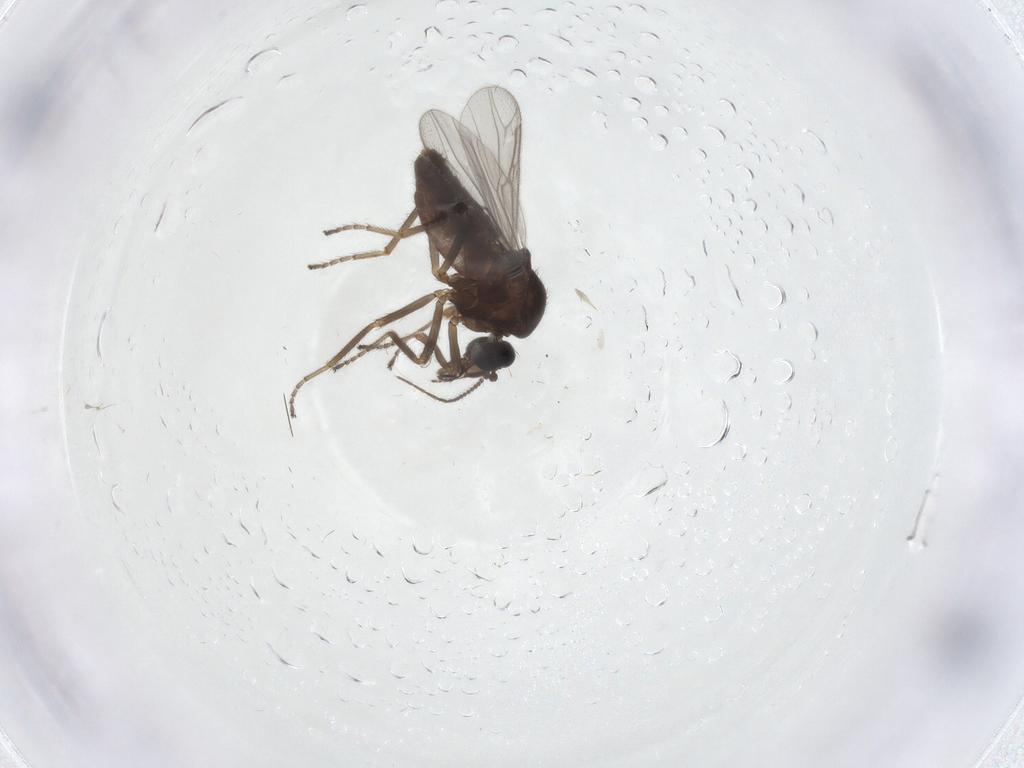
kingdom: Animalia
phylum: Arthropoda
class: Insecta
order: Diptera
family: Ceratopogonidae
